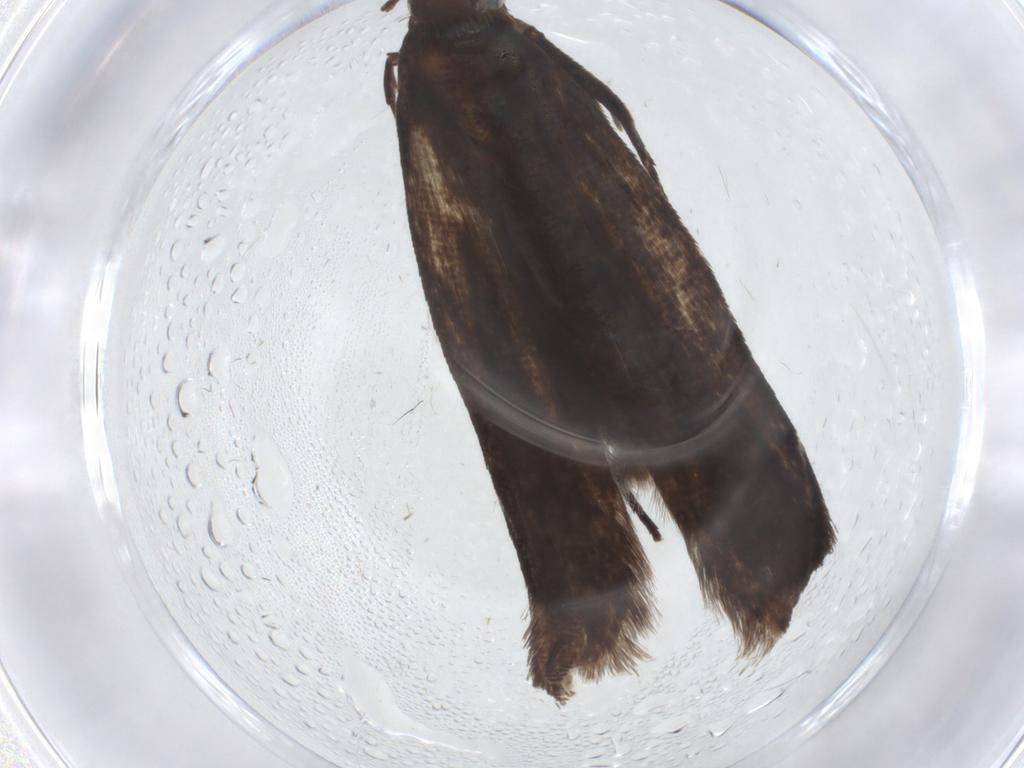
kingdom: Animalia
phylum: Arthropoda
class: Insecta
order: Lepidoptera
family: Crambidae
